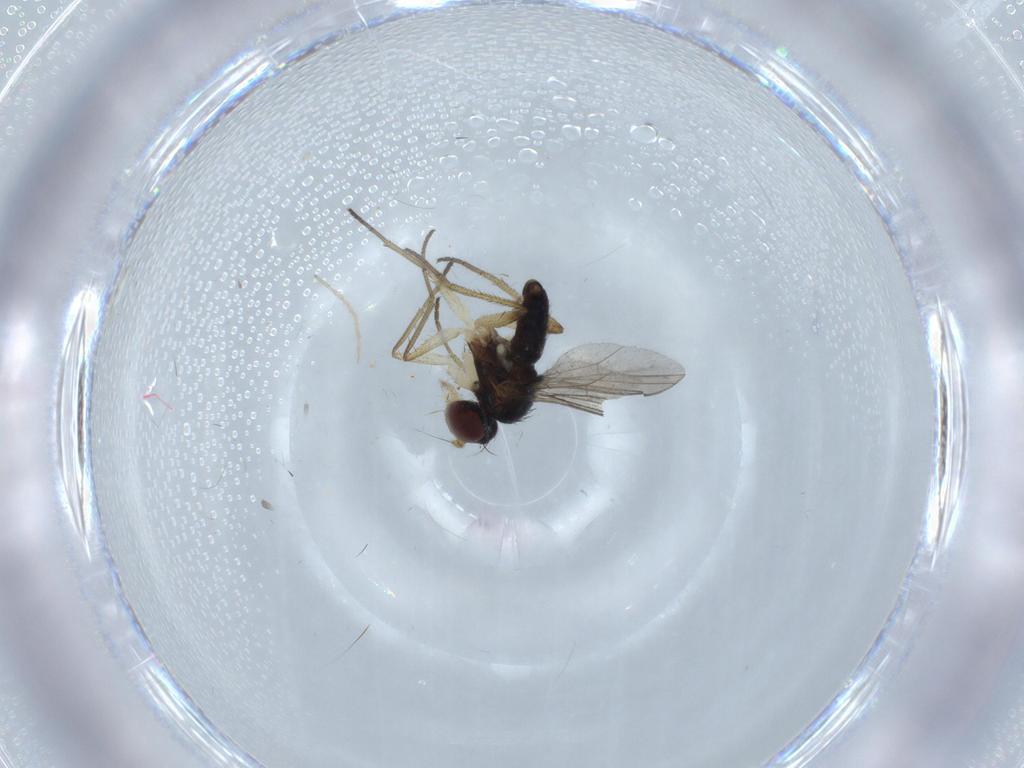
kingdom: Animalia
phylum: Arthropoda
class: Insecta
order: Diptera
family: Dolichopodidae
